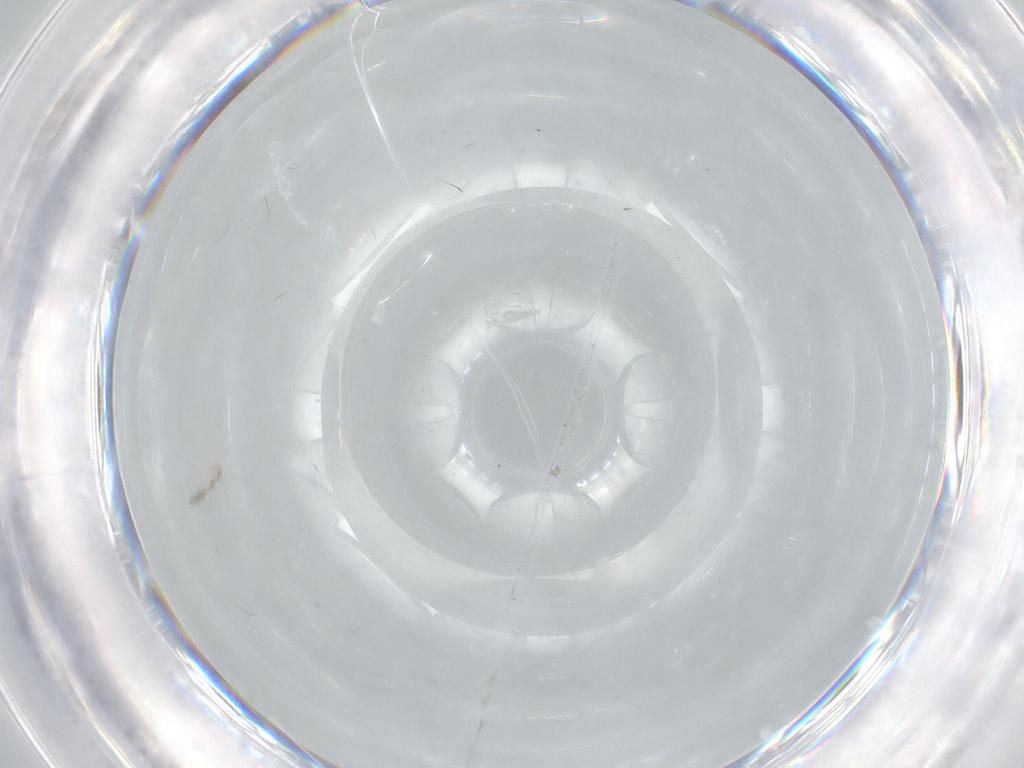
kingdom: Animalia
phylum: Arthropoda
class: Insecta
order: Diptera
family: Cecidomyiidae
